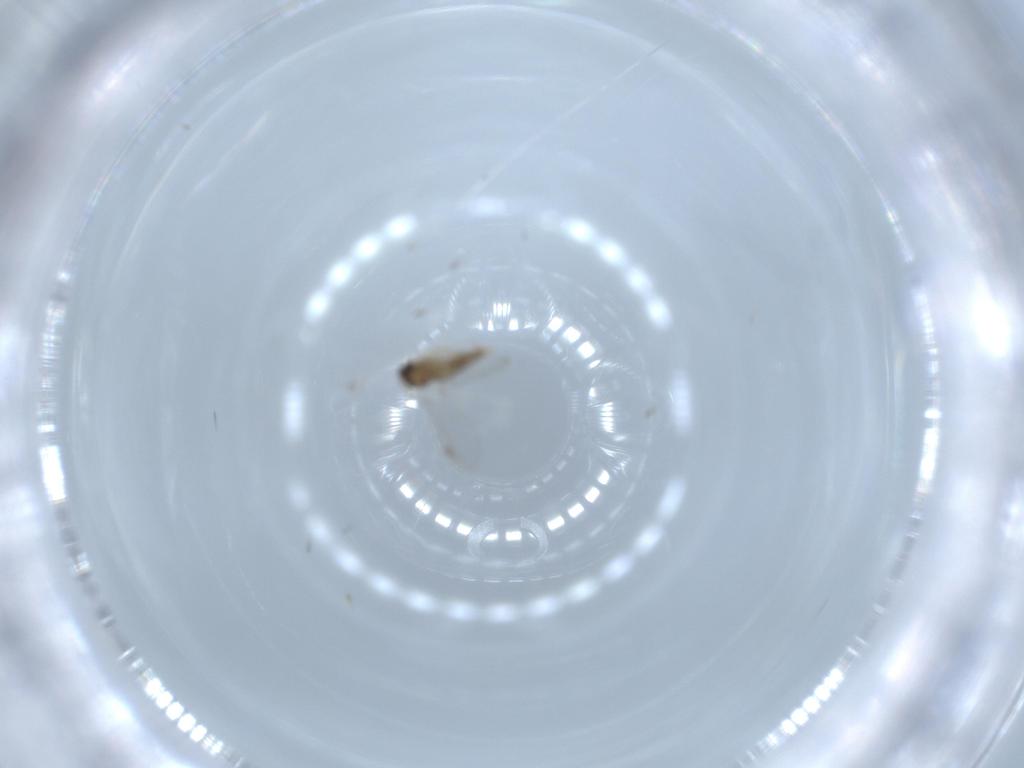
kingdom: Animalia
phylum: Arthropoda
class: Insecta
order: Diptera
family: Cecidomyiidae
